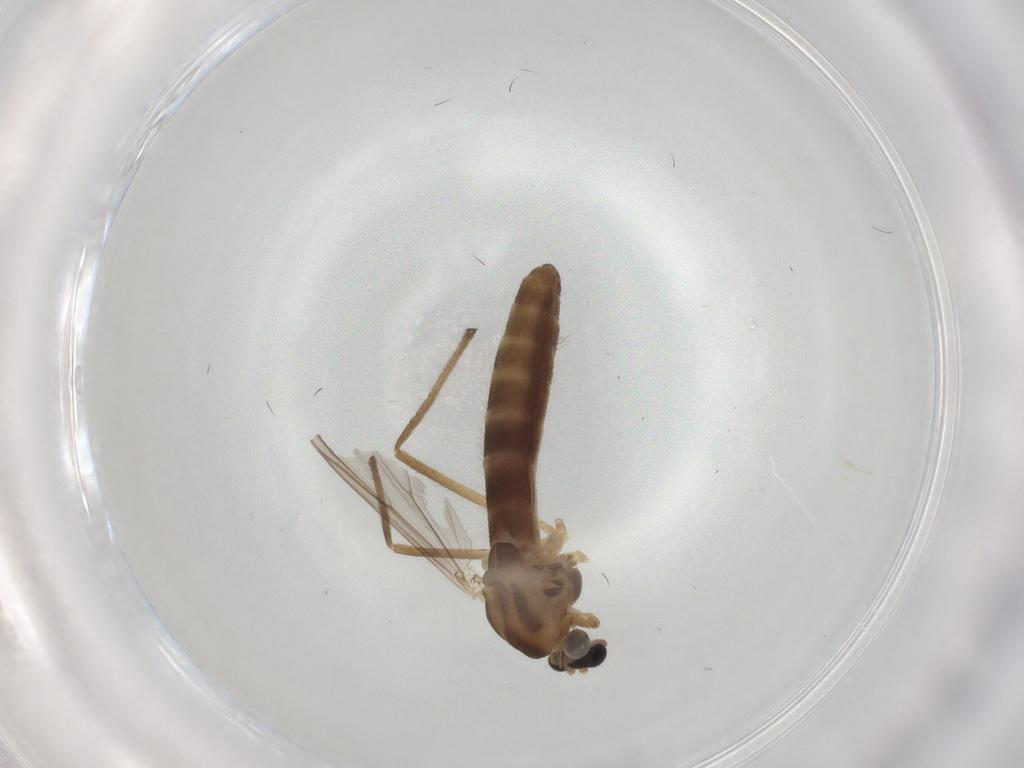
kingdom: Animalia
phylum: Arthropoda
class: Insecta
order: Diptera
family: Chironomidae
